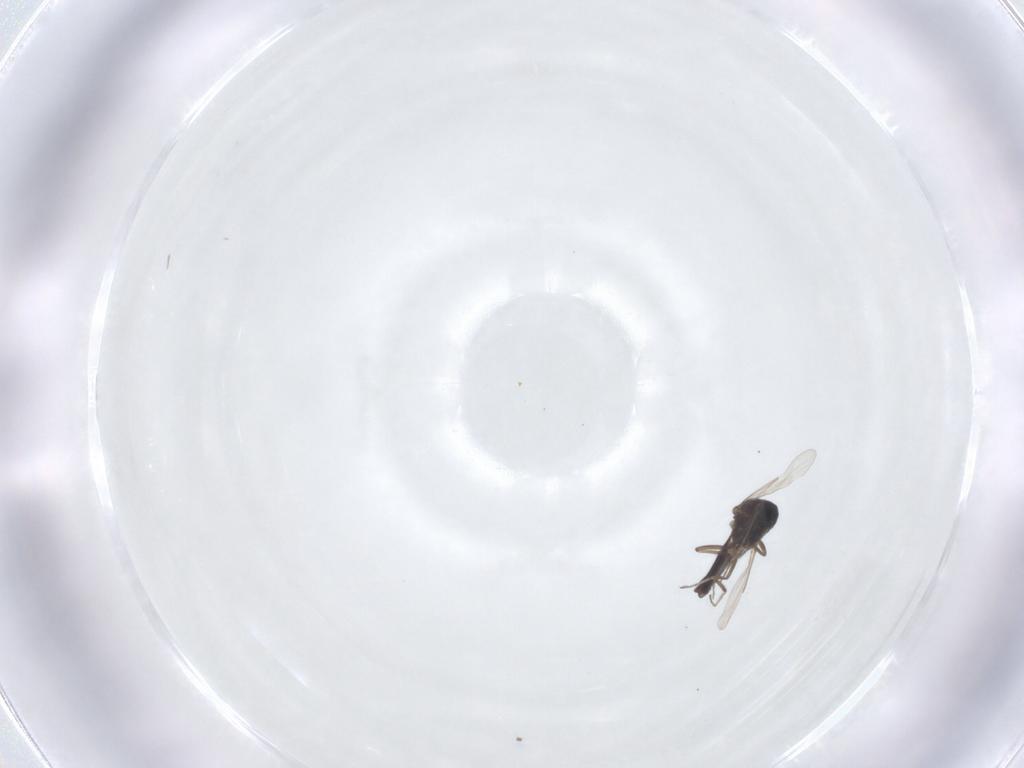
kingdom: Animalia
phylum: Arthropoda
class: Insecta
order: Diptera
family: Ceratopogonidae
